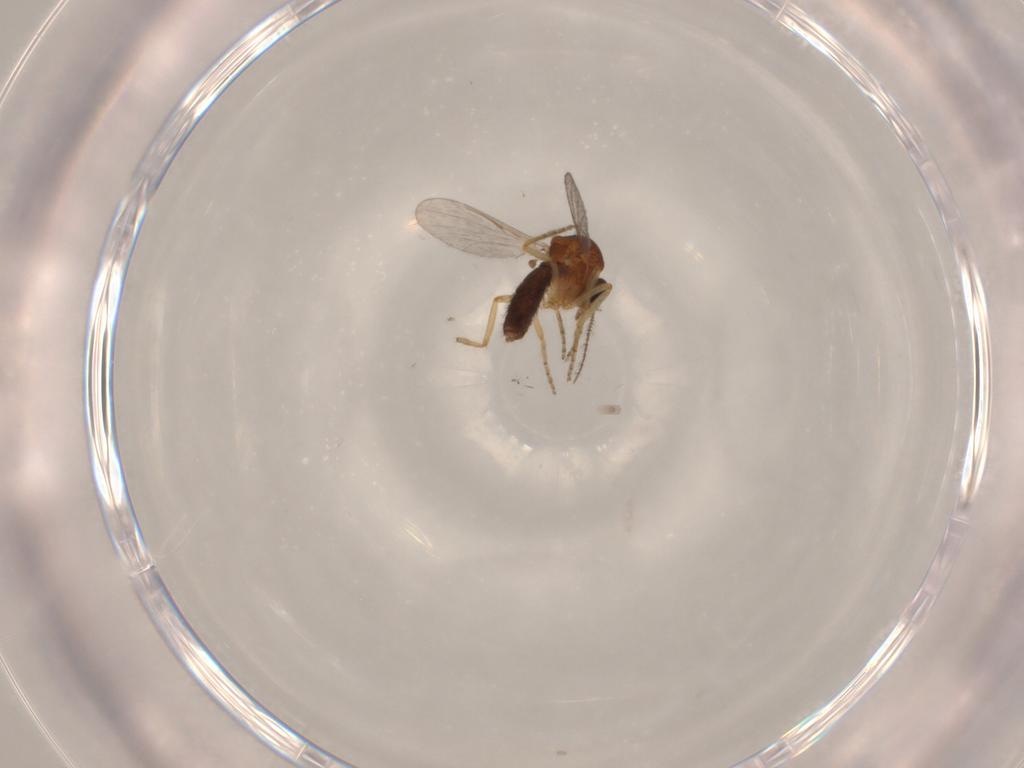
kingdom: Animalia
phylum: Arthropoda
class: Insecta
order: Diptera
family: Ceratopogonidae
